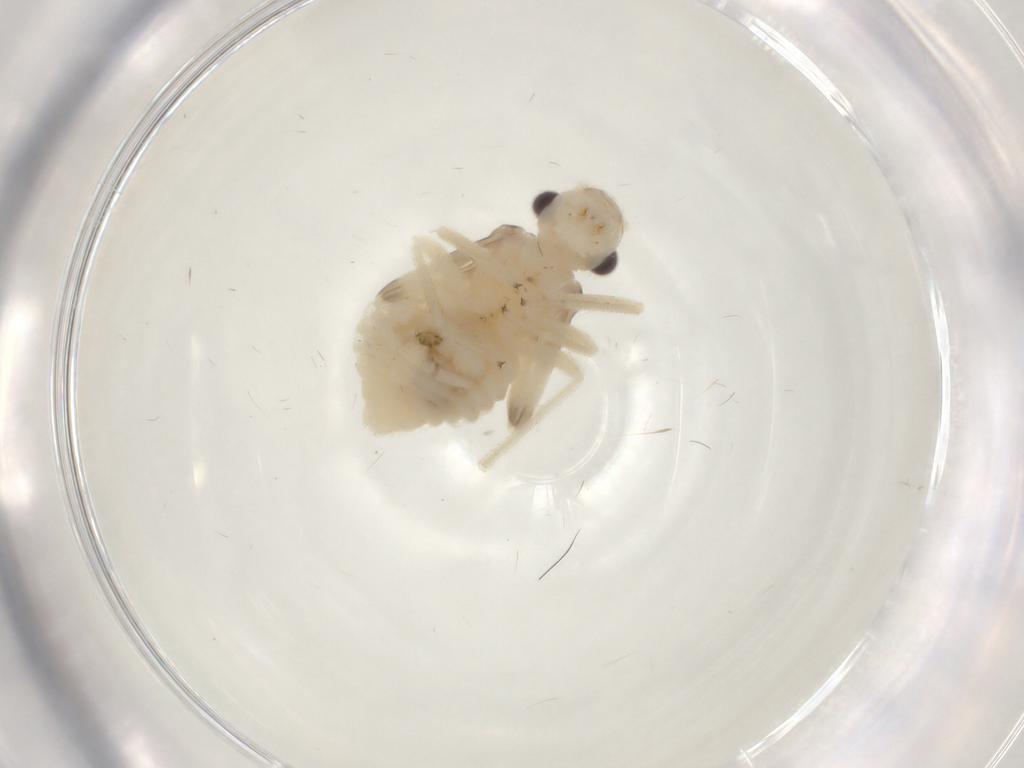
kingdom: Animalia
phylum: Arthropoda
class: Insecta
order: Psocodea
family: Amphipsocidae
